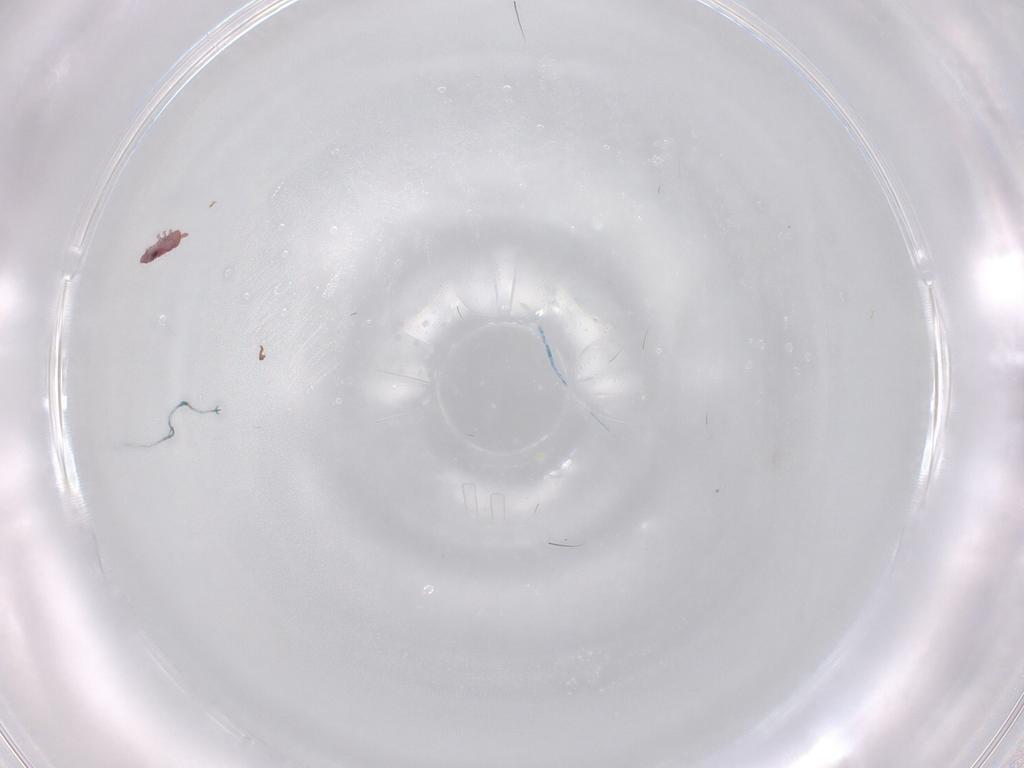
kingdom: Animalia
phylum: Arthropoda
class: Collembola
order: Poduromorpha
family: Hypogastruridae
